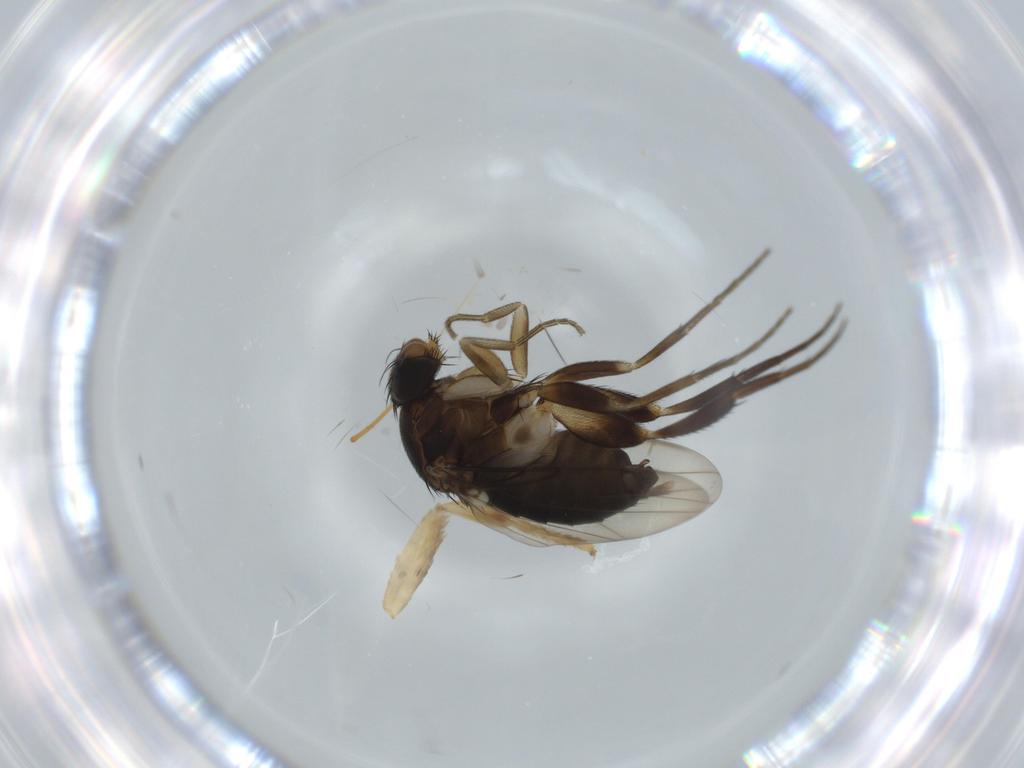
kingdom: Animalia
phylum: Arthropoda
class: Insecta
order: Diptera
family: Phoridae
